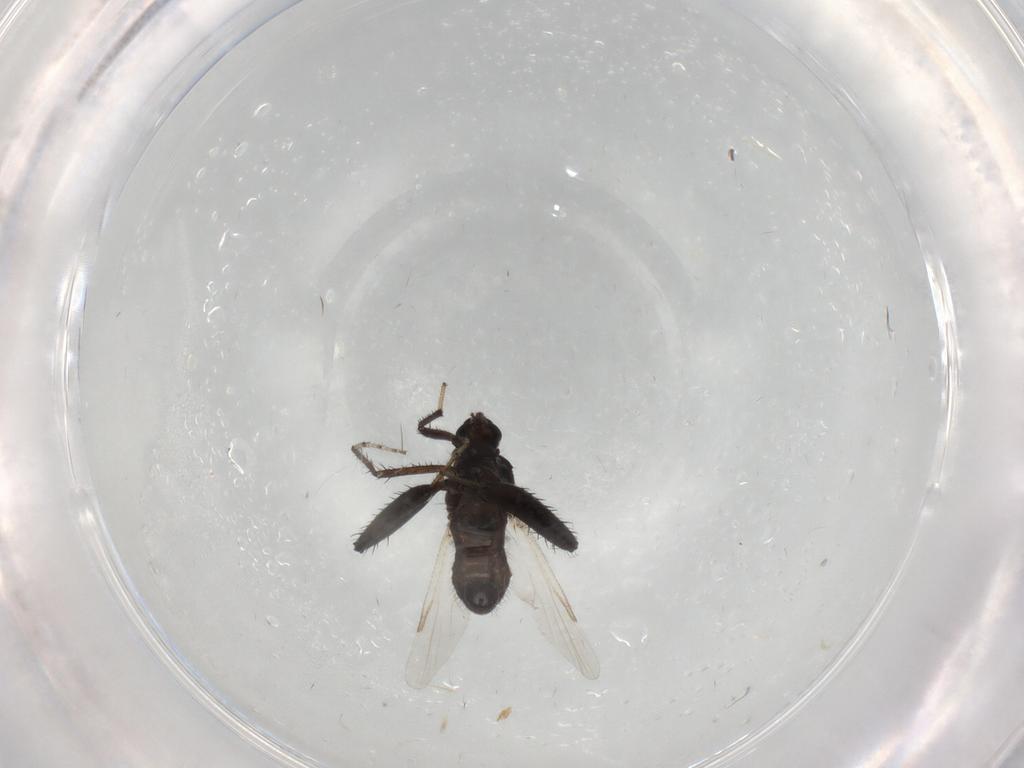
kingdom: Animalia
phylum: Arthropoda
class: Insecta
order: Diptera
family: Ceratopogonidae
